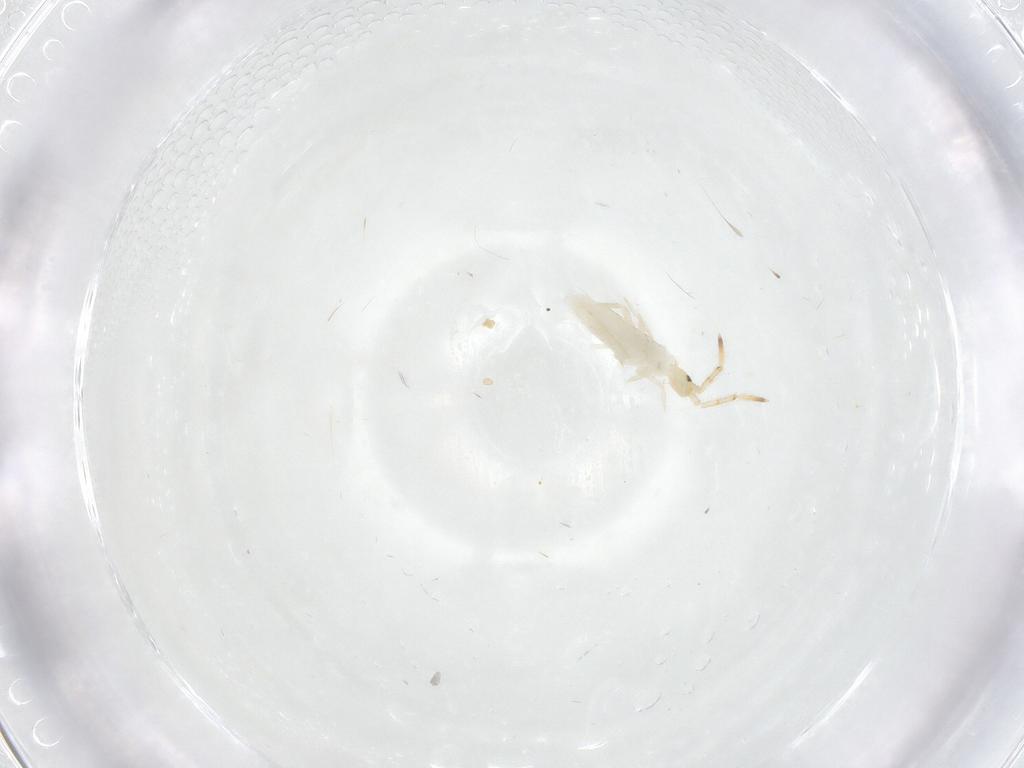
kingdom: Animalia
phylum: Arthropoda
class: Collembola
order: Entomobryomorpha
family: Entomobryidae
